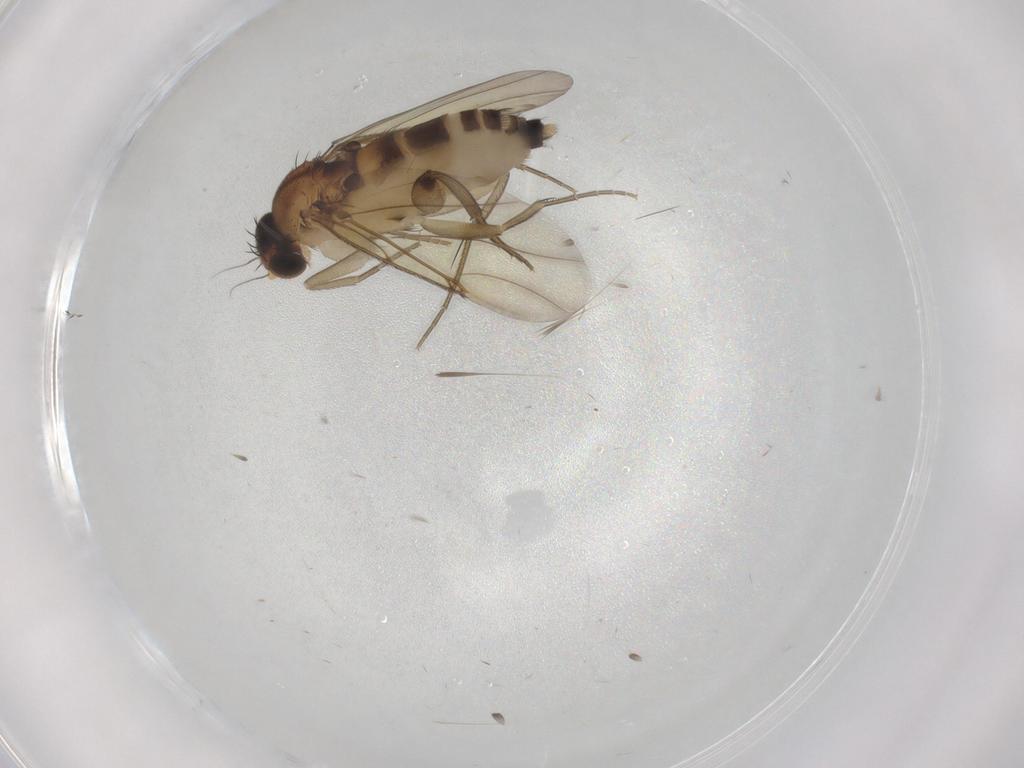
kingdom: Animalia
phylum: Arthropoda
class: Insecta
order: Diptera
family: Phoridae
